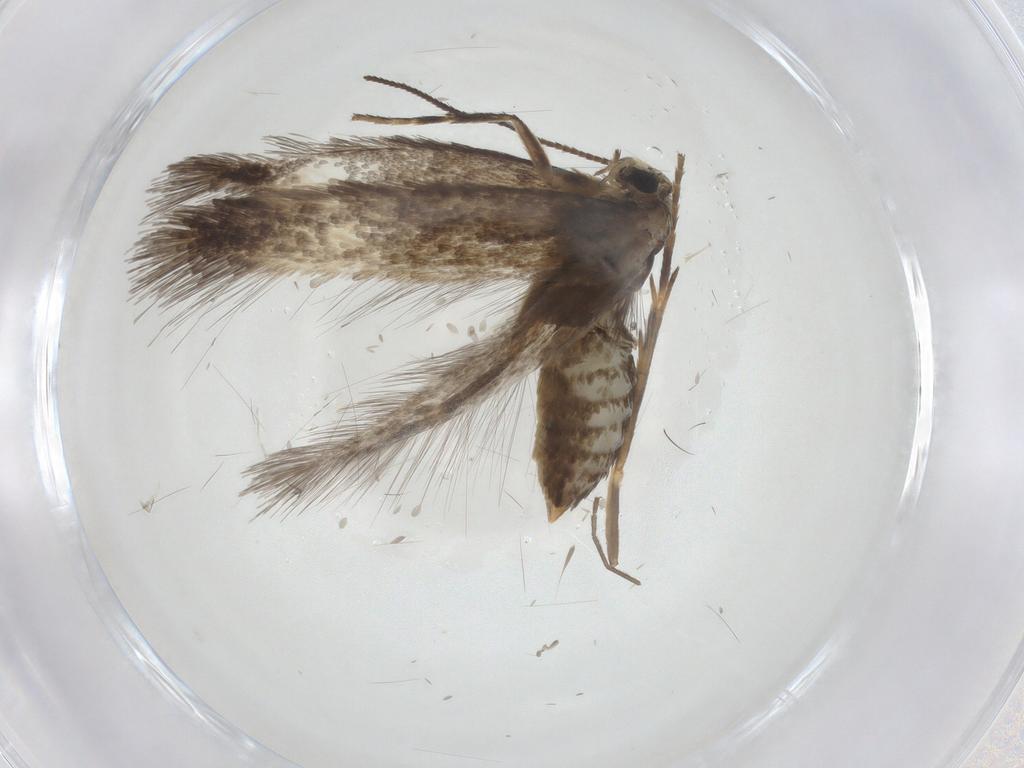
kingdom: Animalia
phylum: Arthropoda
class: Insecta
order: Lepidoptera
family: Nepticulidae
